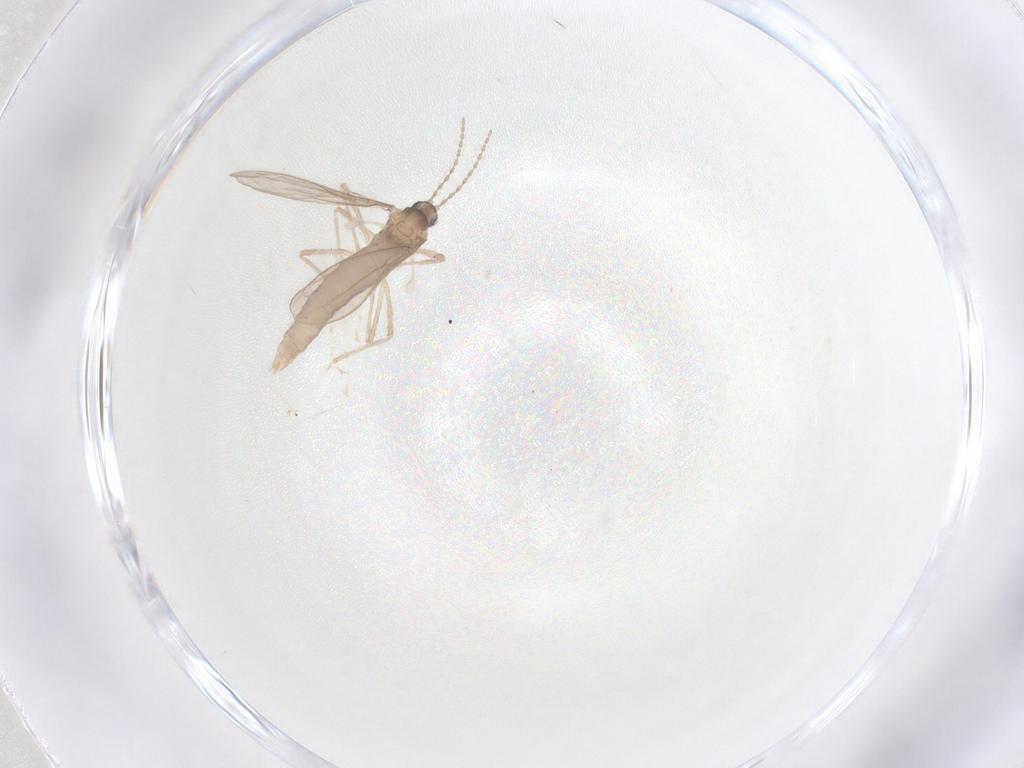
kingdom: Animalia
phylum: Arthropoda
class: Insecta
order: Diptera
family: Cecidomyiidae
